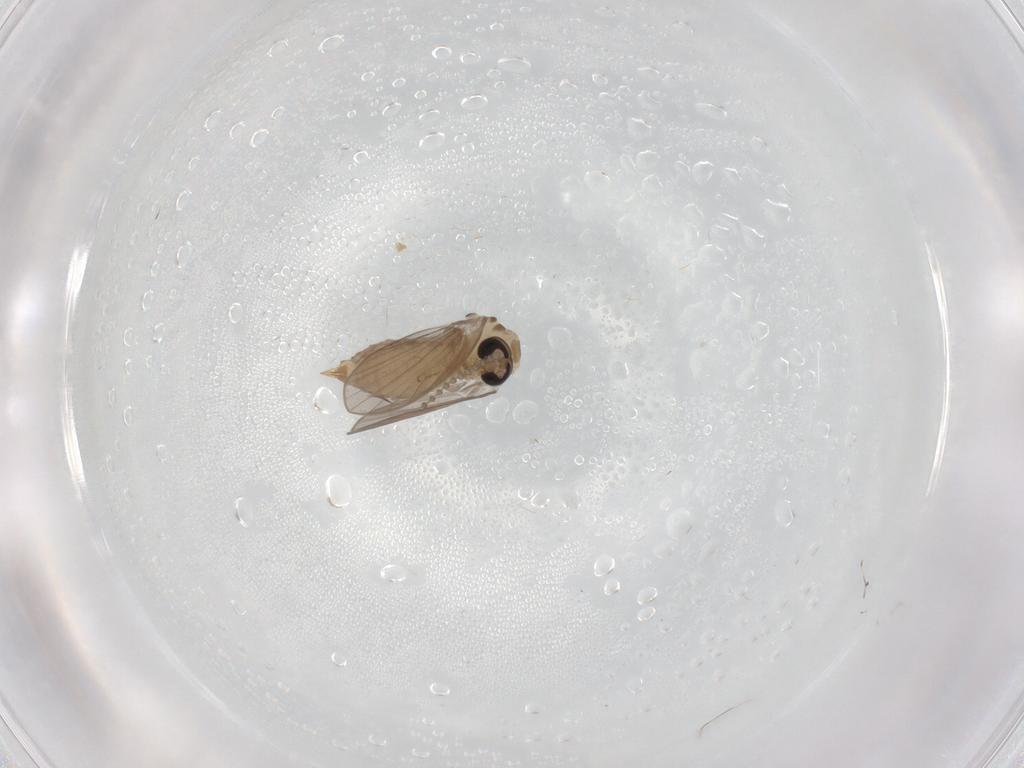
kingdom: Animalia
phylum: Arthropoda
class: Insecta
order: Diptera
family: Psychodidae
